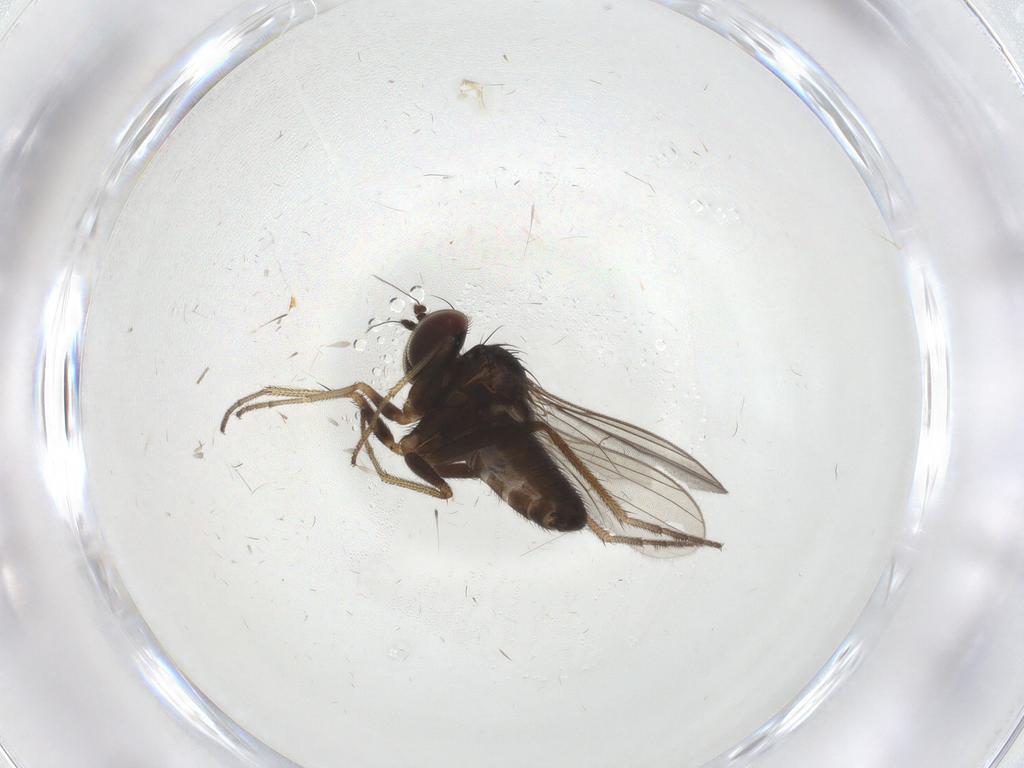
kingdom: Animalia
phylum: Arthropoda
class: Insecta
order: Diptera
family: Dolichopodidae
